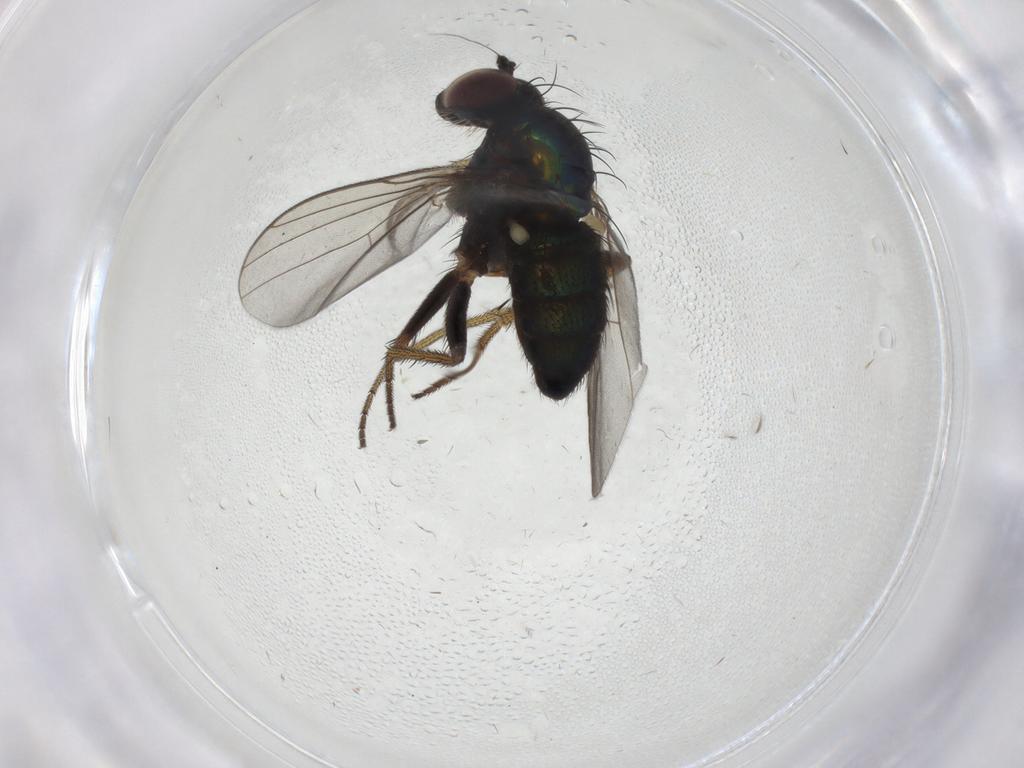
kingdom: Animalia
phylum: Arthropoda
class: Insecta
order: Diptera
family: Dolichopodidae
